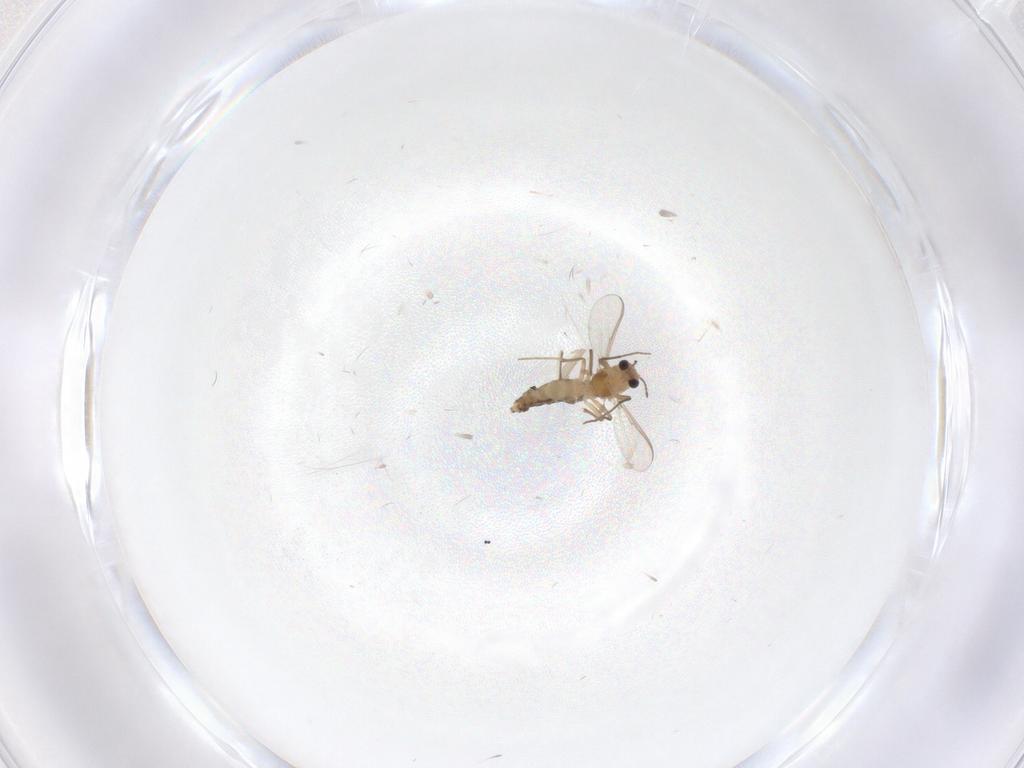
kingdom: Animalia
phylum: Arthropoda
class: Insecta
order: Diptera
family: Chironomidae
